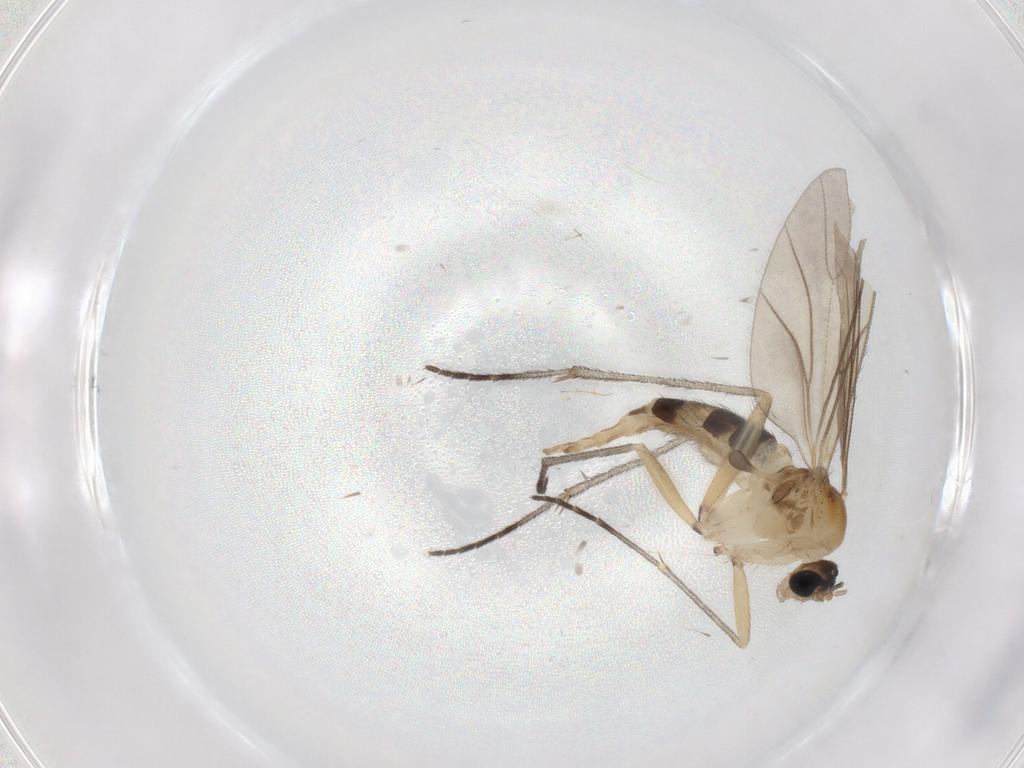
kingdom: Animalia
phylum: Arthropoda
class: Insecta
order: Diptera
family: Limoniidae
